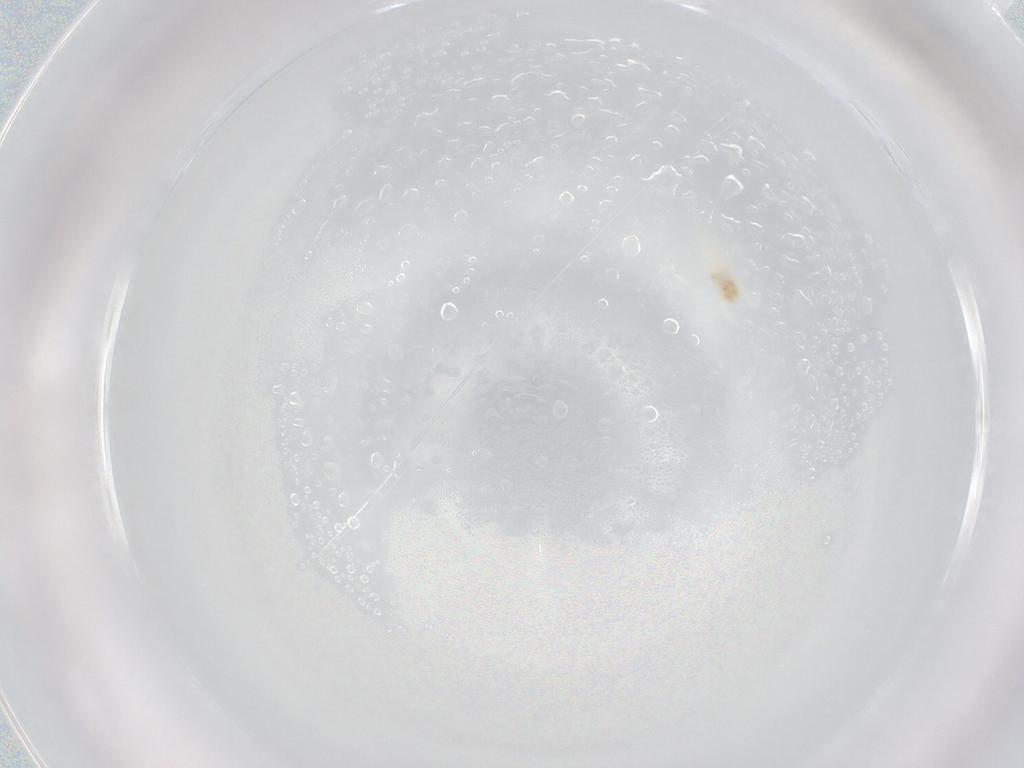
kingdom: Animalia
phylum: Arthropoda
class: Arachnida
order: Trombidiformes
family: Rhagidiidae
